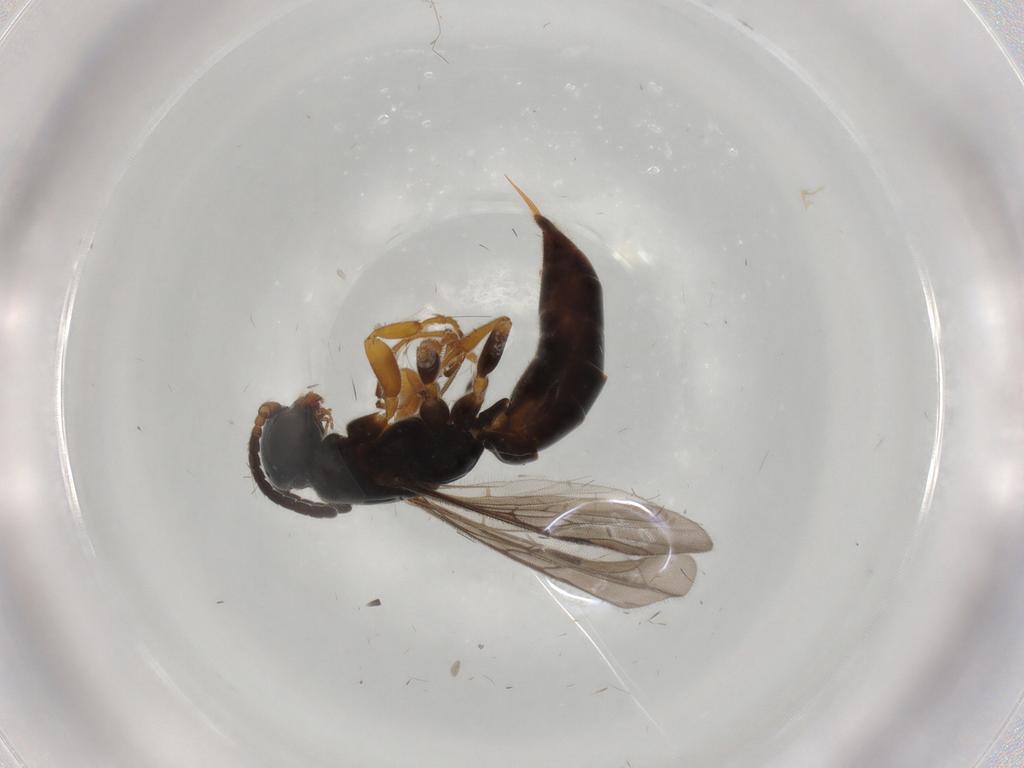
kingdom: Animalia
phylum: Arthropoda
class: Insecta
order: Hymenoptera
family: Sierolomorphidae
